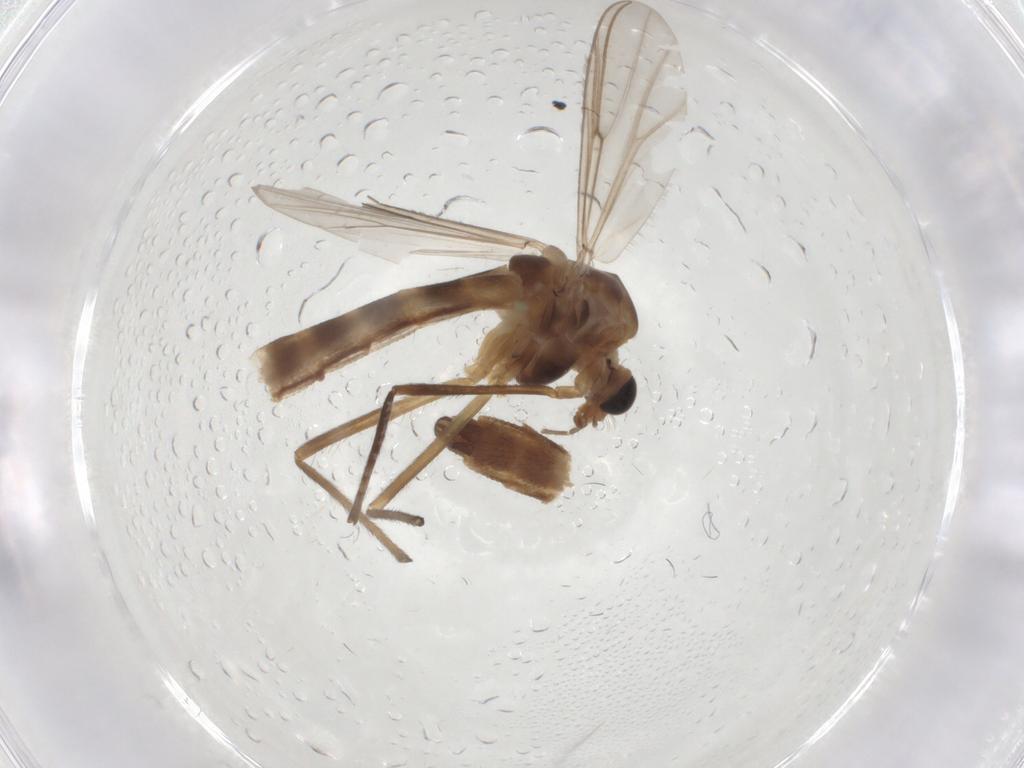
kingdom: Animalia
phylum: Arthropoda
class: Insecta
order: Diptera
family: Chironomidae
